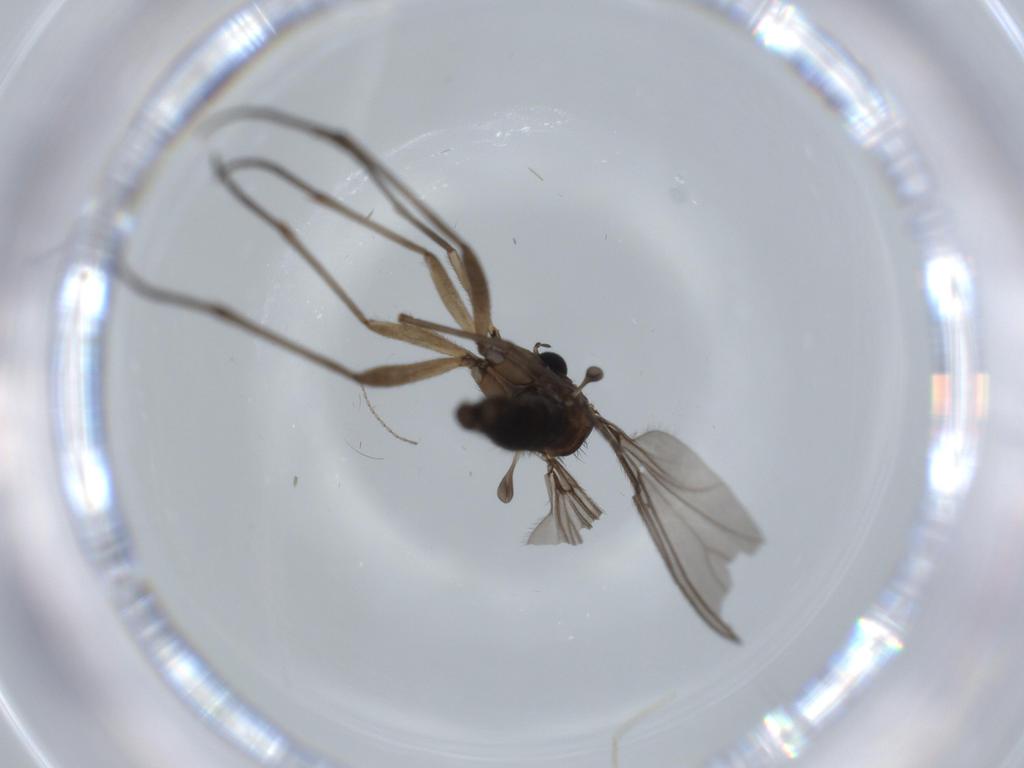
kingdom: Animalia
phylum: Arthropoda
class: Insecta
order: Diptera
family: Sciaridae
